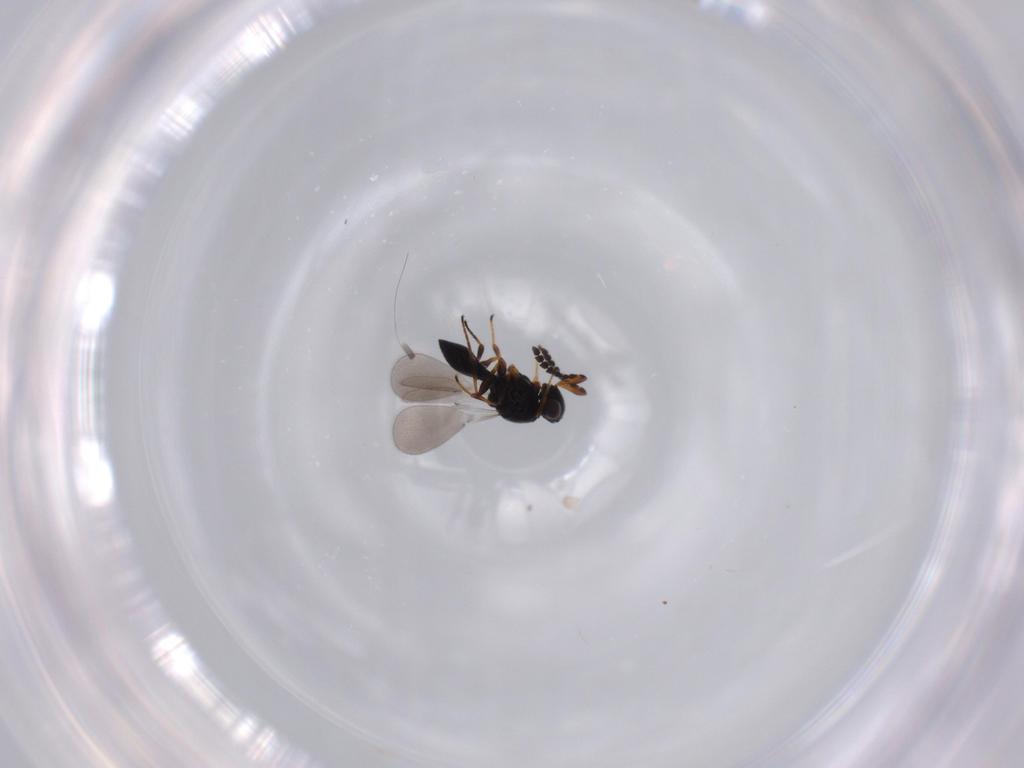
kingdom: Animalia
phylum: Arthropoda
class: Insecta
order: Hymenoptera
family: Platygastridae
